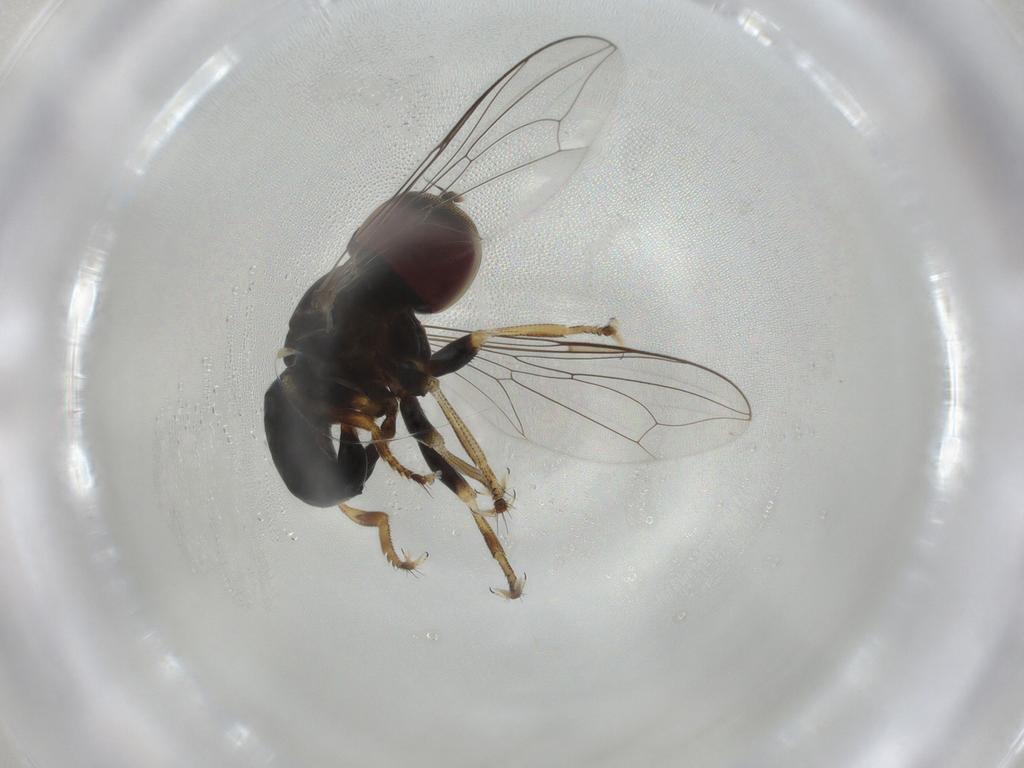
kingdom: Animalia
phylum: Arthropoda
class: Insecta
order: Diptera
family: Pipunculidae
